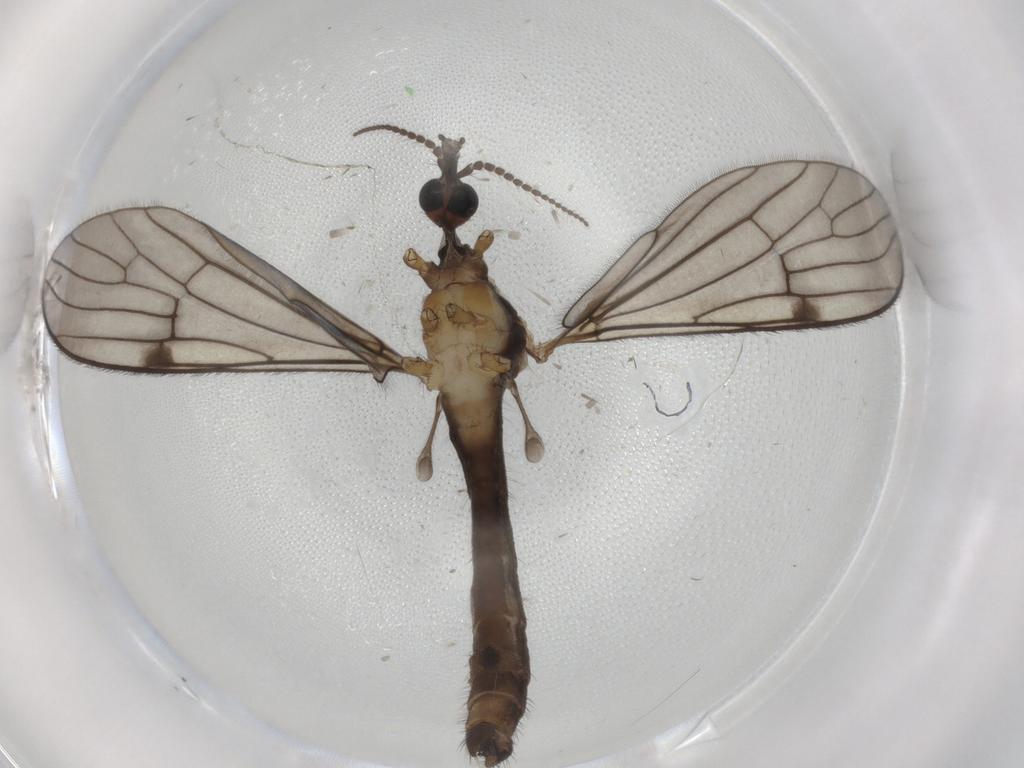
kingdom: Animalia
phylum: Arthropoda
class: Insecta
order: Diptera
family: Limoniidae
